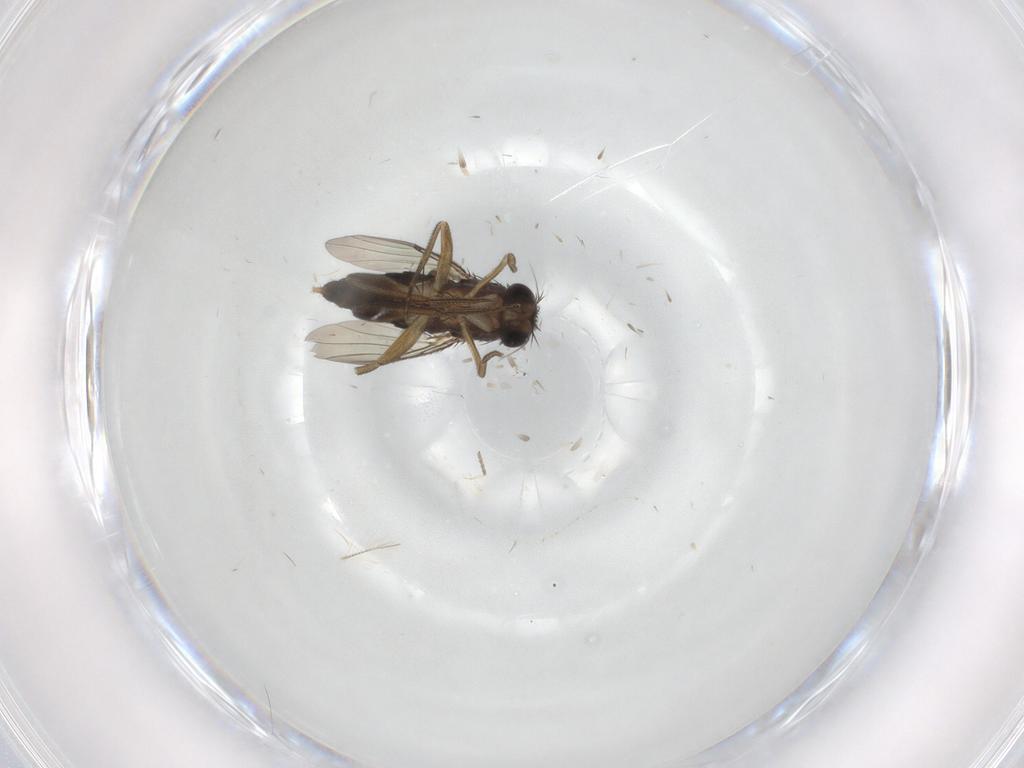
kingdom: Animalia
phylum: Arthropoda
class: Insecta
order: Diptera
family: Phoridae
